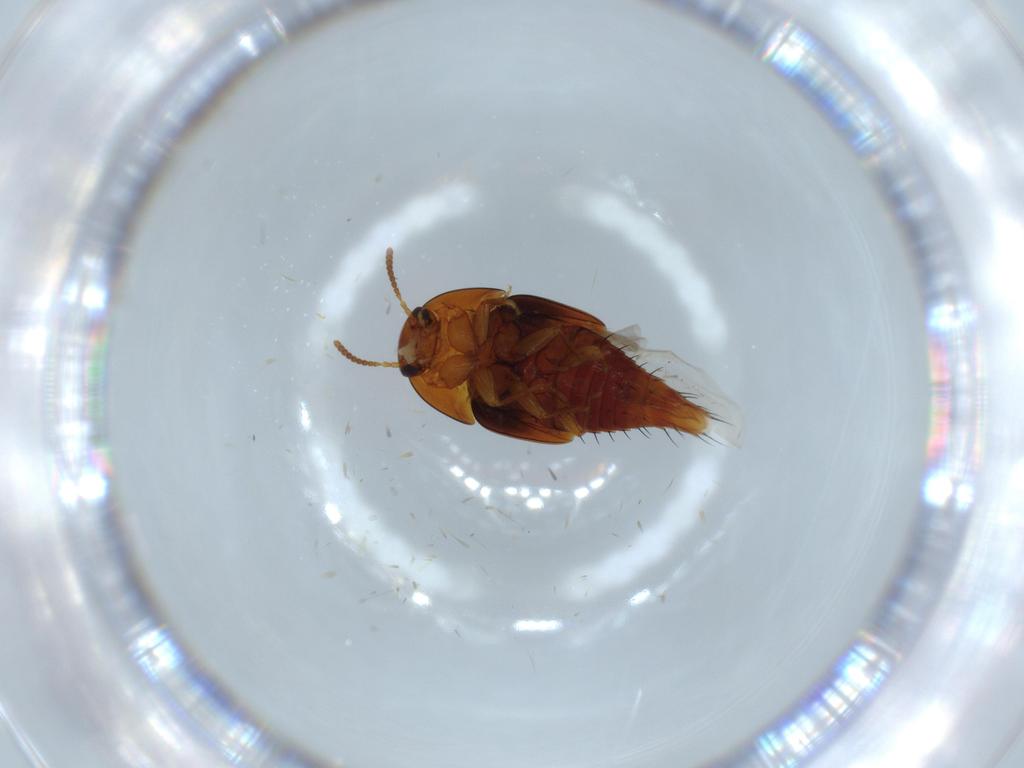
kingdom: Animalia
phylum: Arthropoda
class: Insecta
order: Coleoptera
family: Staphylinidae
